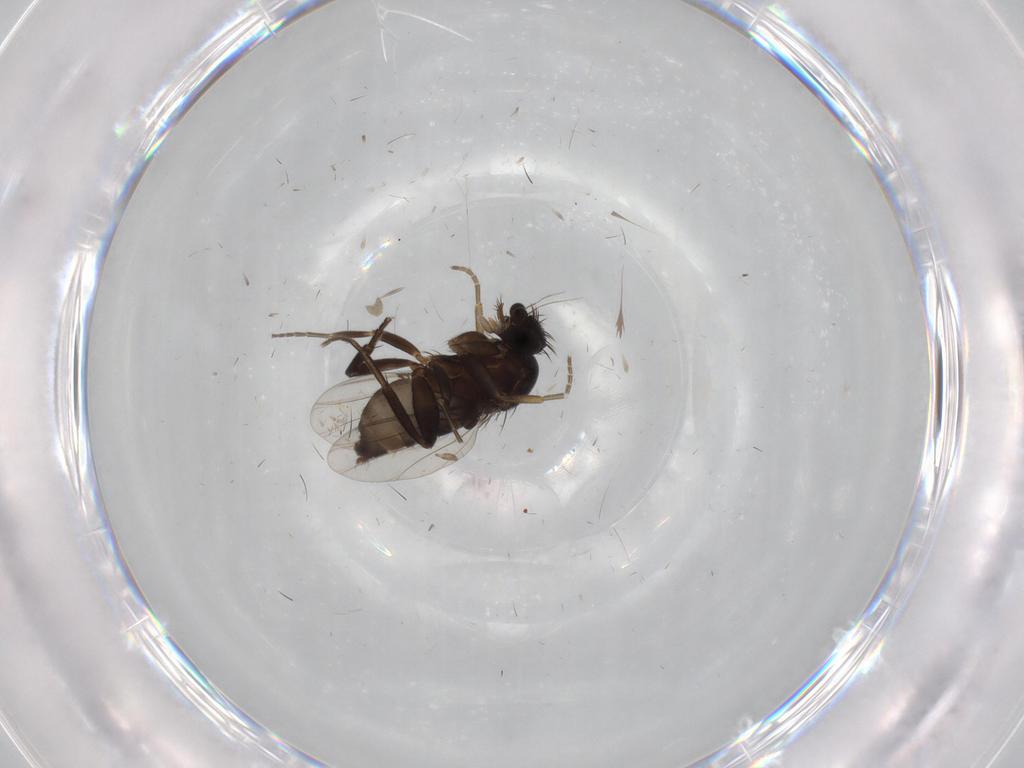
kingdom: Animalia
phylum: Arthropoda
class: Insecta
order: Diptera
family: Phoridae
